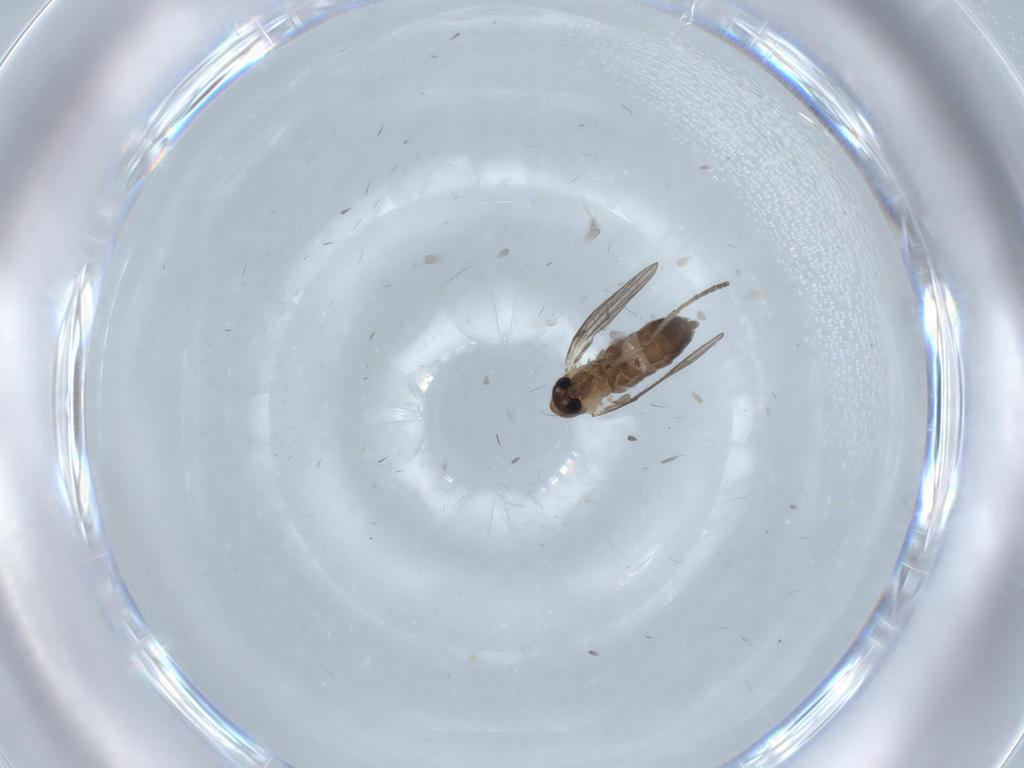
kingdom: Animalia
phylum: Arthropoda
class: Insecta
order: Diptera
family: Psychodidae
